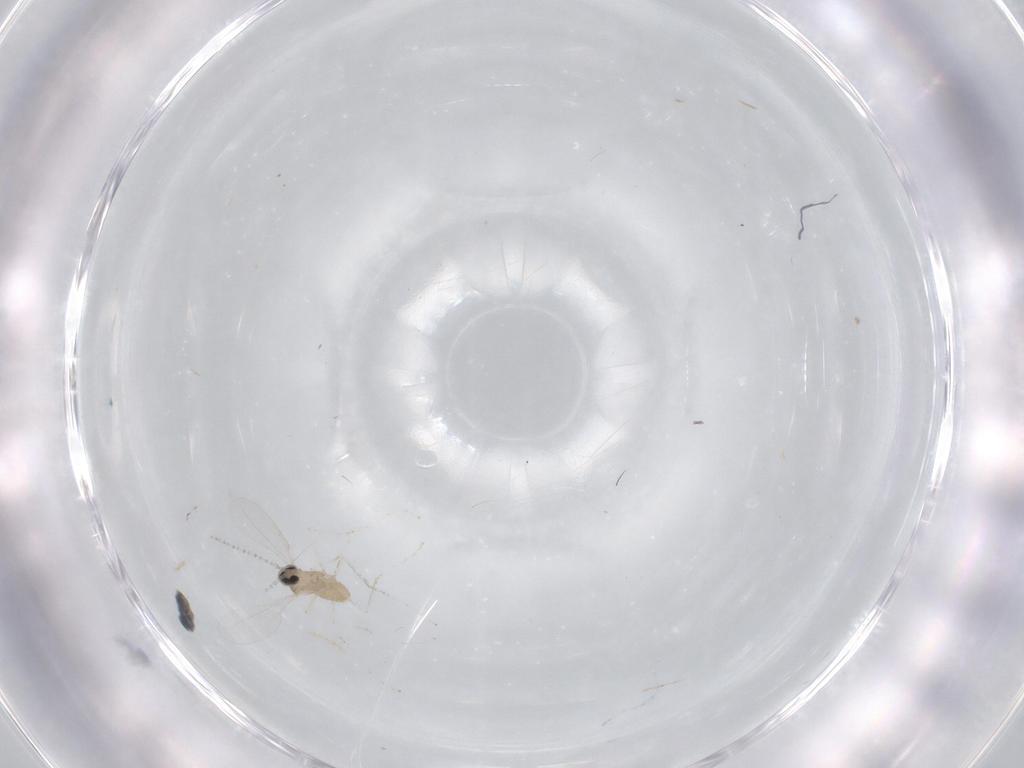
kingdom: Animalia
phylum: Arthropoda
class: Insecta
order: Diptera
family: Cecidomyiidae
